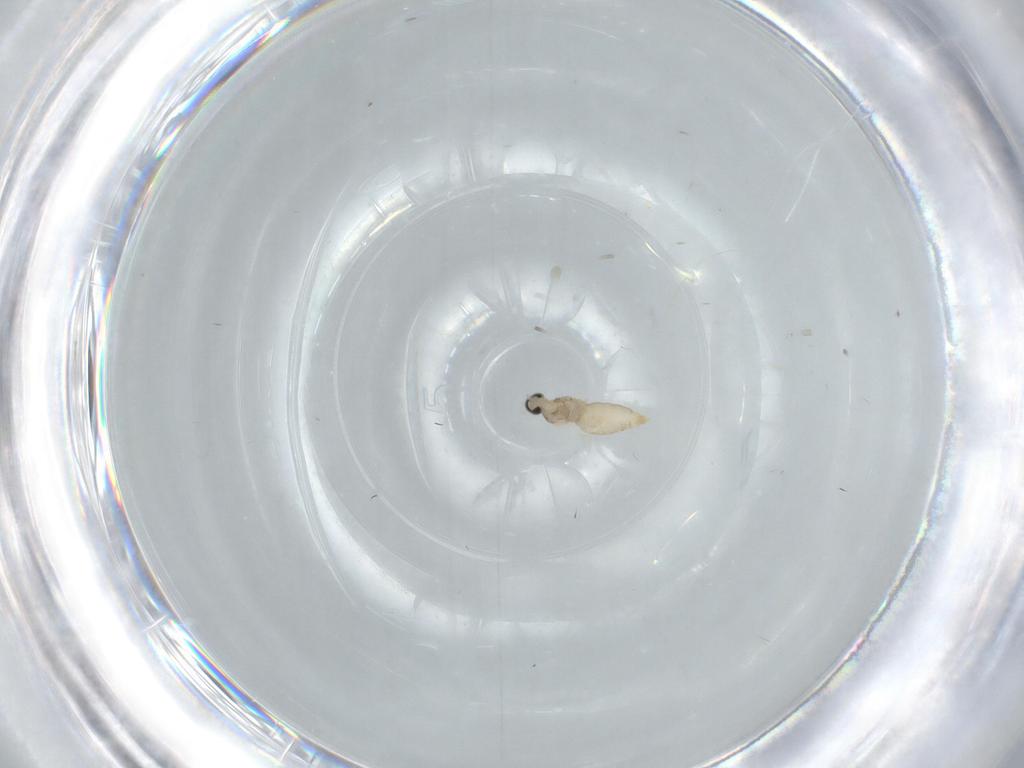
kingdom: Animalia
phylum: Arthropoda
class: Insecta
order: Diptera
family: Cecidomyiidae
